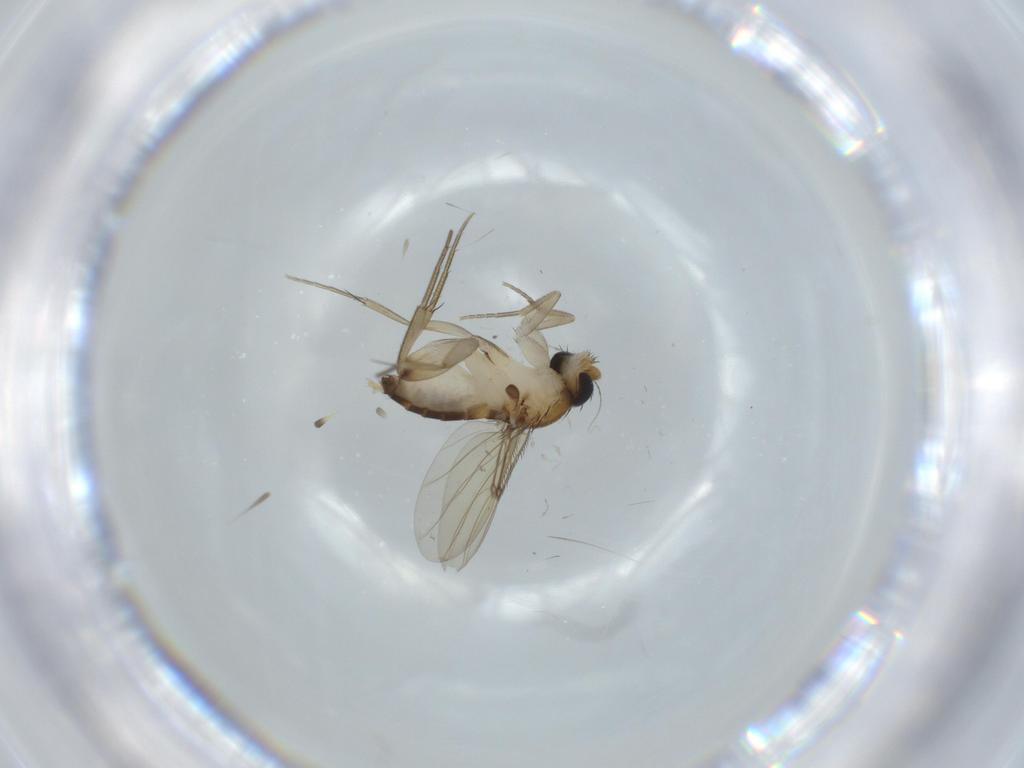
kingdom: Animalia
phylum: Arthropoda
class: Insecta
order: Diptera
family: Phoridae
